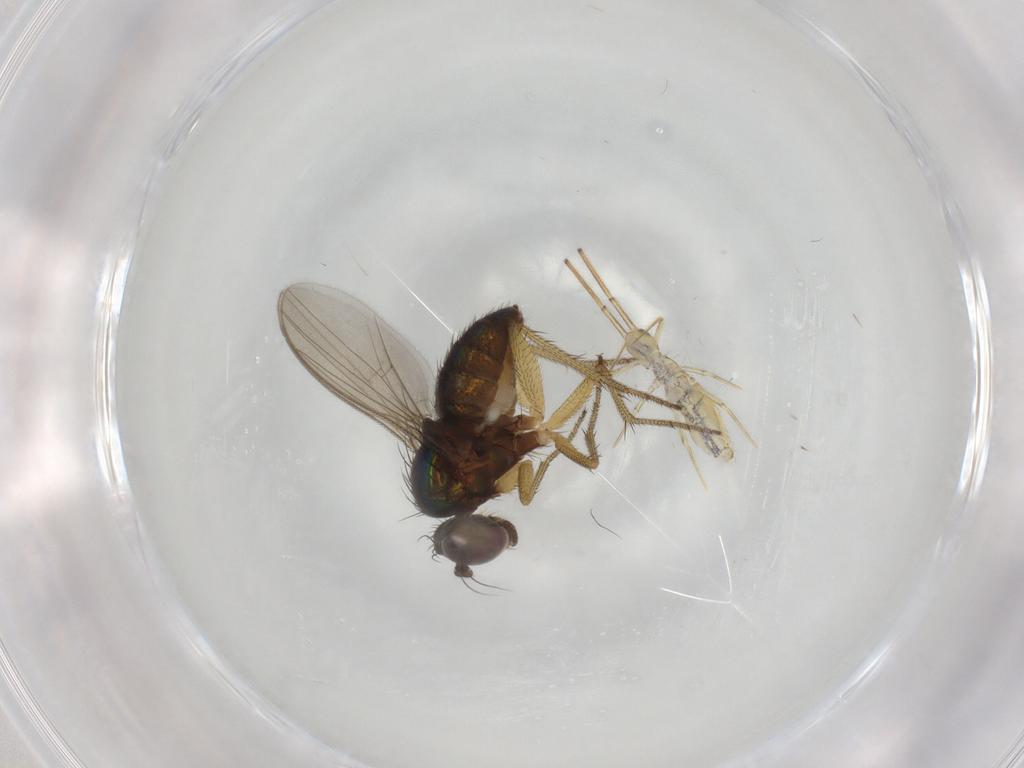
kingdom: Animalia
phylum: Arthropoda
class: Insecta
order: Diptera
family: Dolichopodidae
